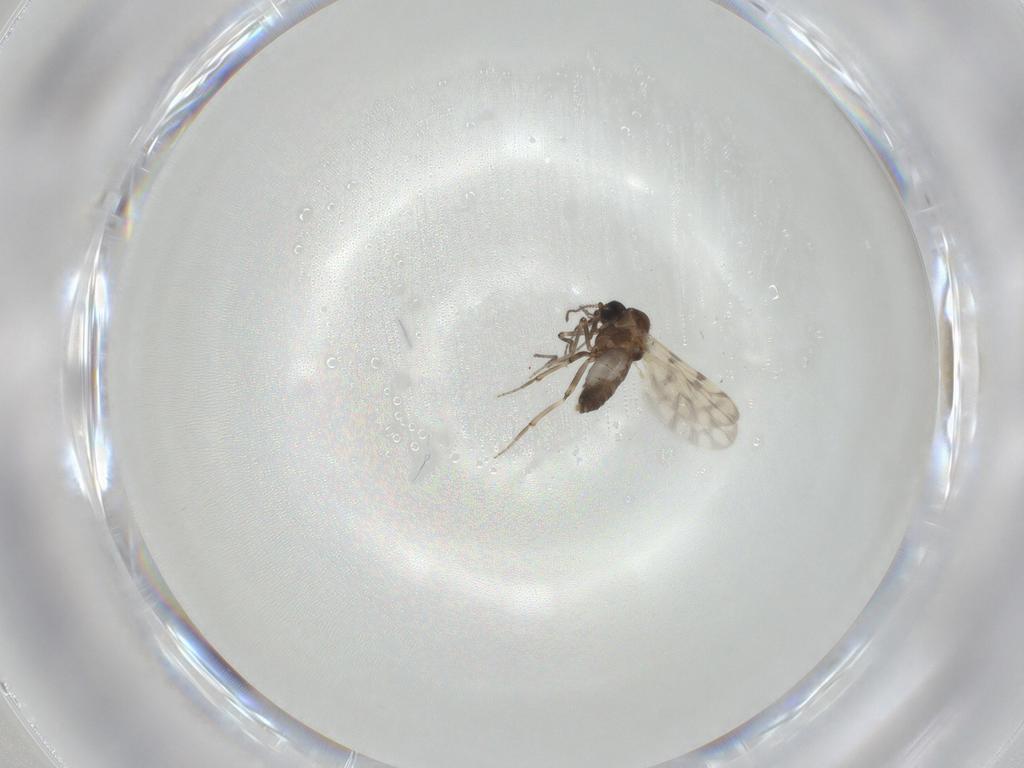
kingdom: Animalia
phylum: Arthropoda
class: Insecta
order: Diptera
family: Ceratopogonidae
